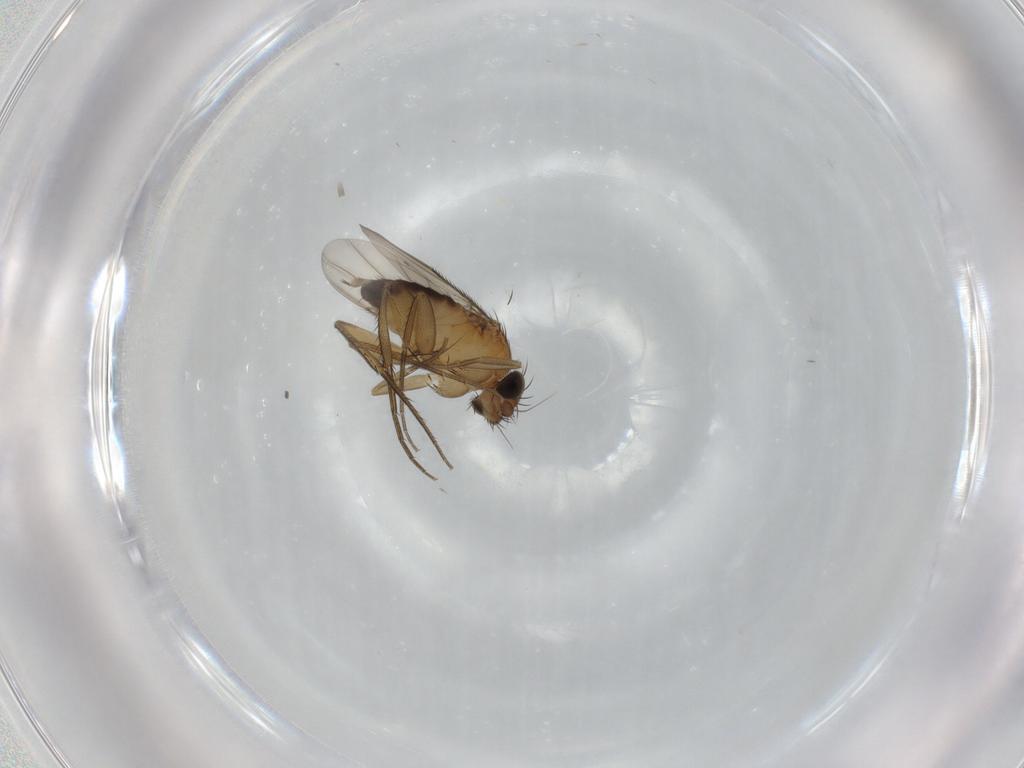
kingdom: Animalia
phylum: Arthropoda
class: Insecta
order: Diptera
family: Phoridae
